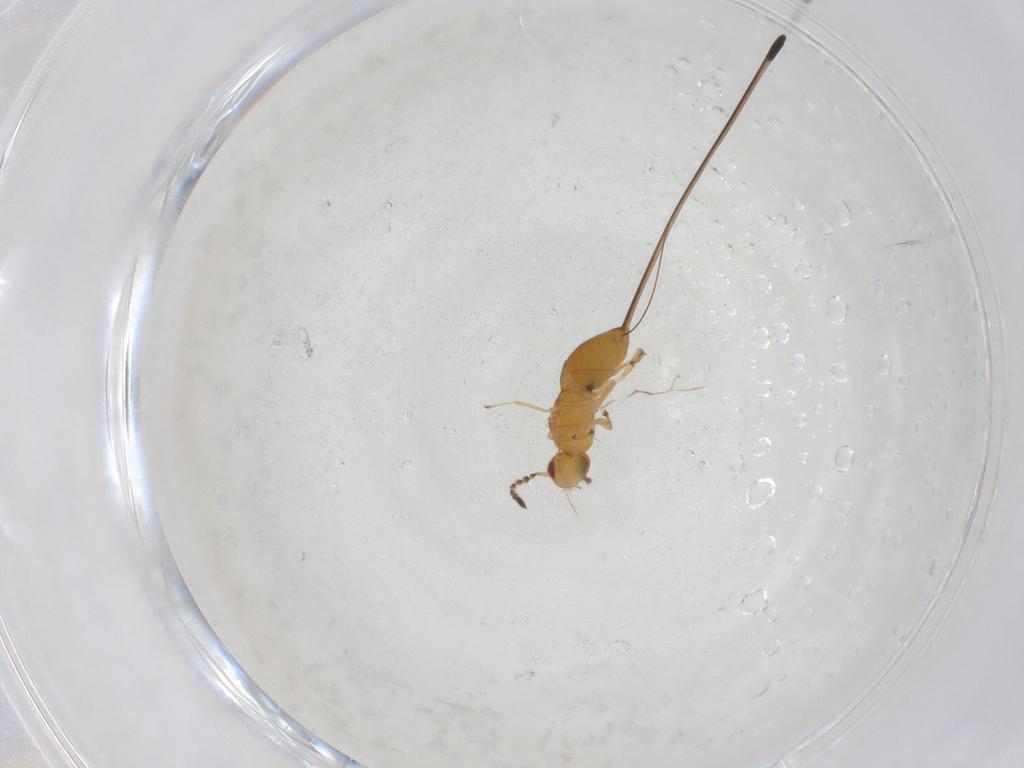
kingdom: Animalia
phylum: Arthropoda
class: Insecta
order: Hymenoptera
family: Pteromalidae
